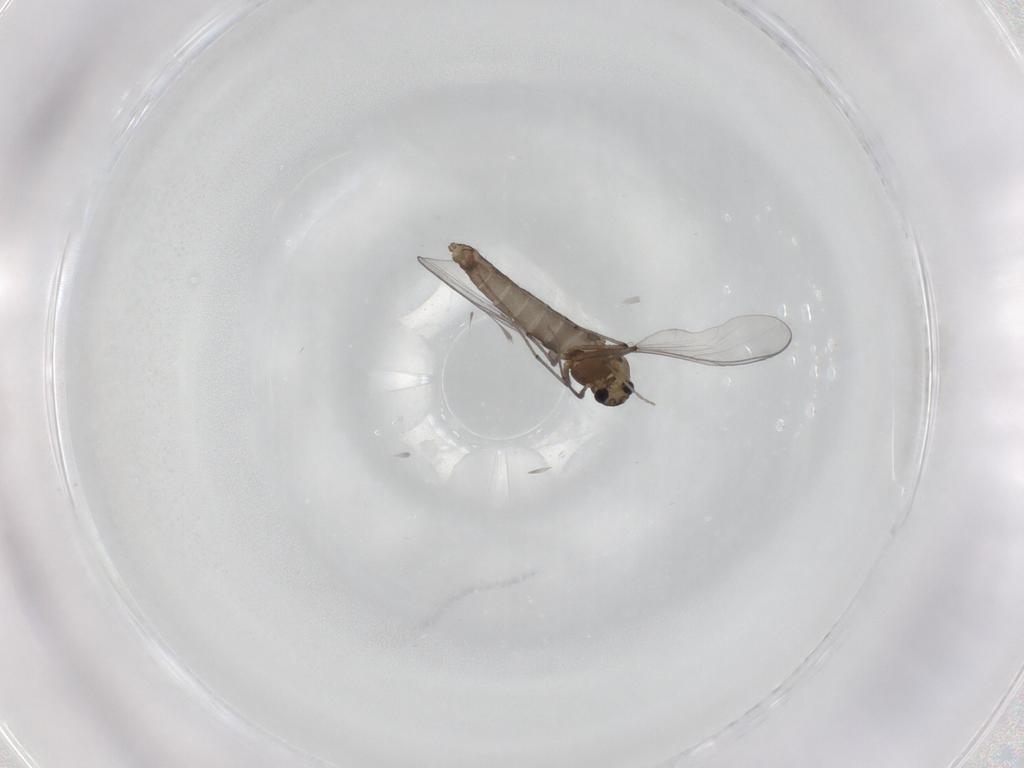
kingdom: Animalia
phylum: Arthropoda
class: Insecta
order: Diptera
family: Chironomidae
